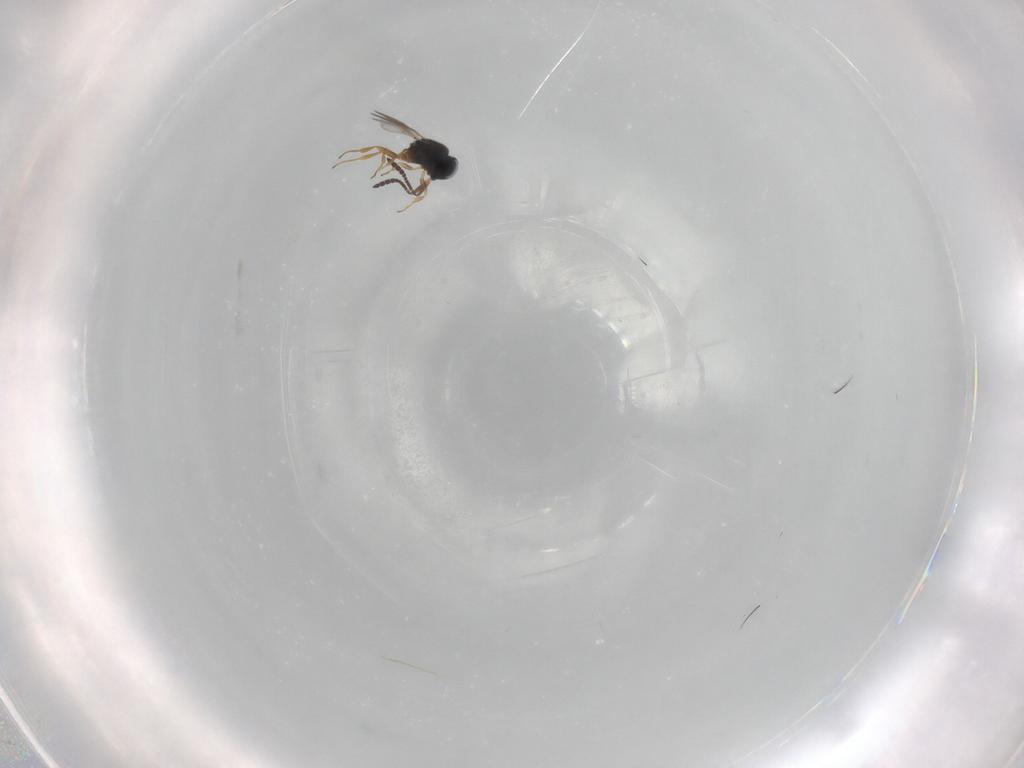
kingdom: Animalia
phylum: Arthropoda
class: Insecta
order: Hymenoptera
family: Scelionidae
